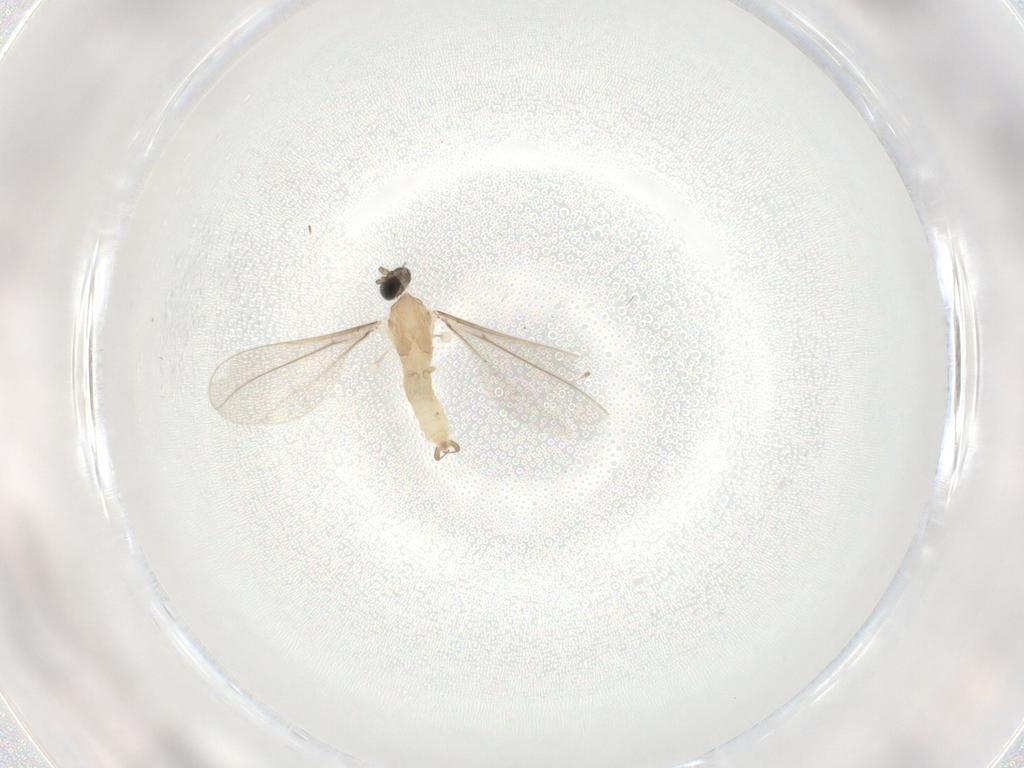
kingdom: Animalia
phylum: Arthropoda
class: Insecta
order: Diptera
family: Cecidomyiidae
